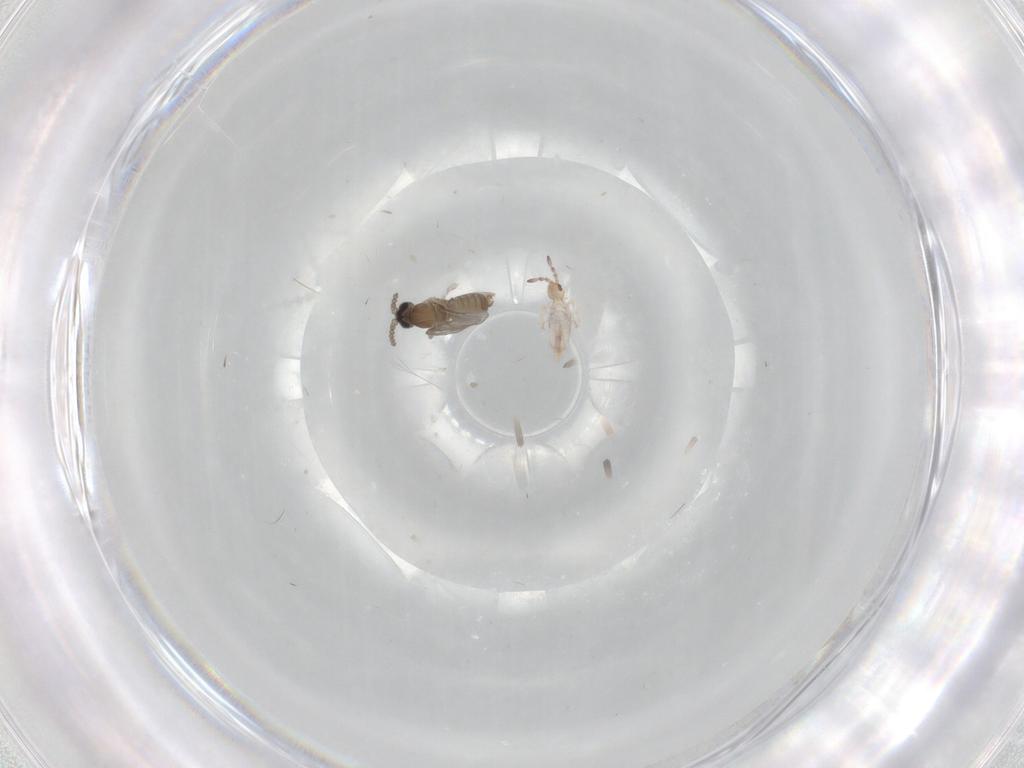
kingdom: Animalia
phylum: Arthropoda
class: Insecta
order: Diptera
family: Cecidomyiidae
